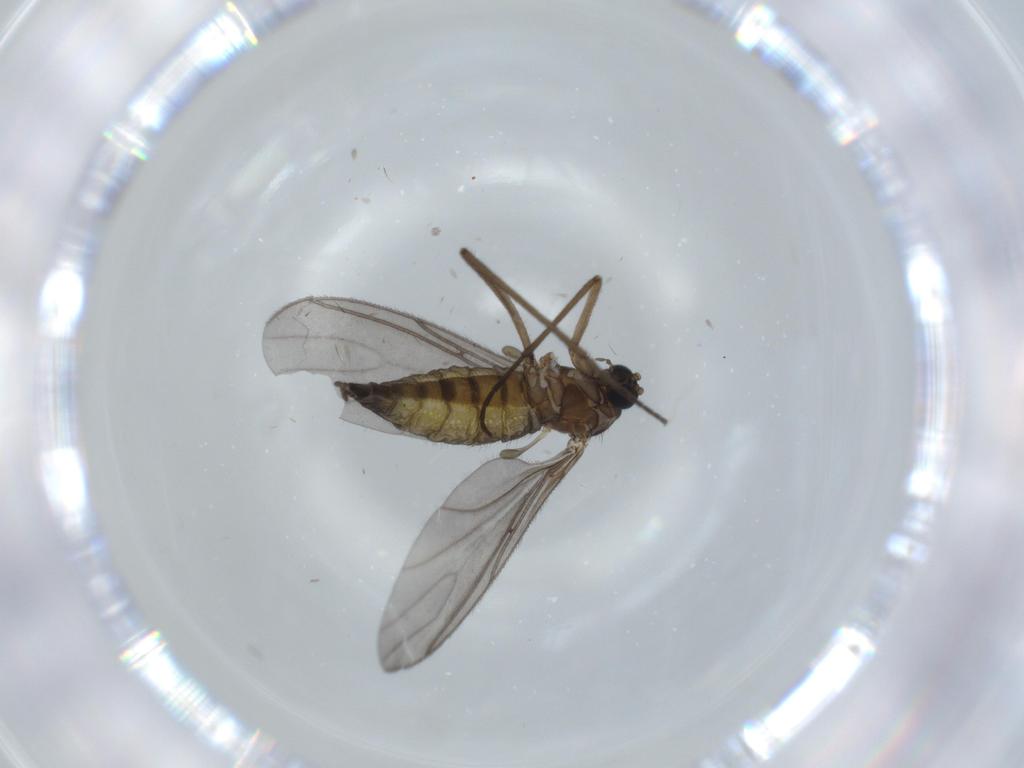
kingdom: Animalia
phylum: Arthropoda
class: Insecta
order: Diptera
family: Sciaridae
